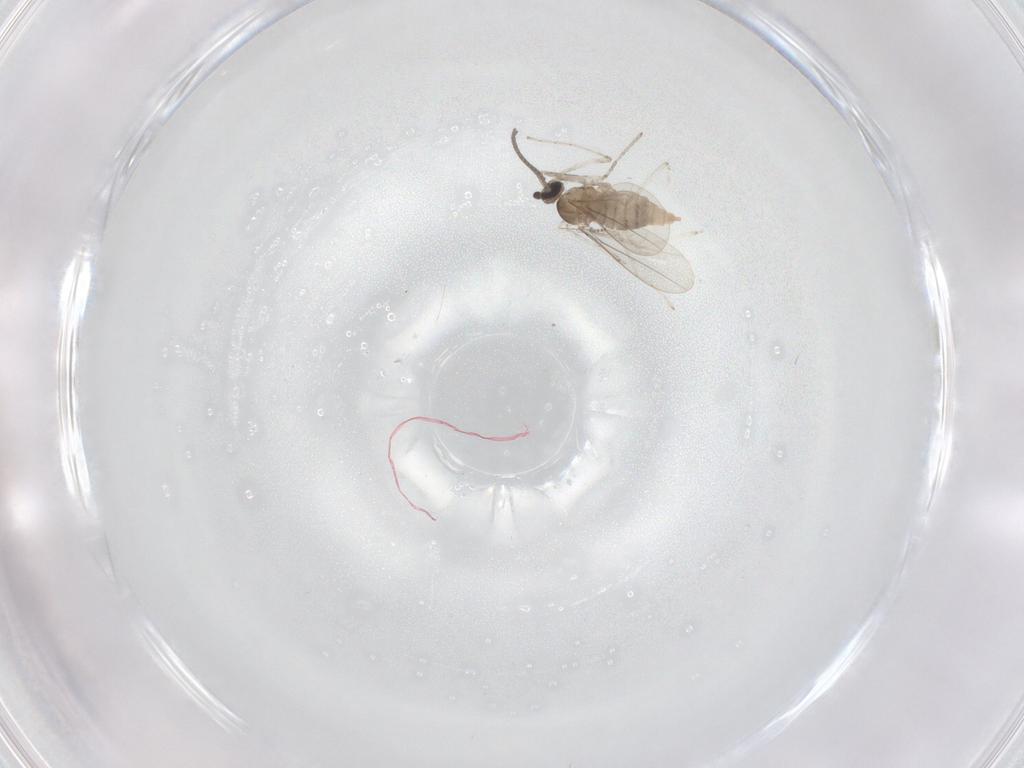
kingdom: Animalia
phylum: Arthropoda
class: Insecta
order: Diptera
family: Cecidomyiidae
